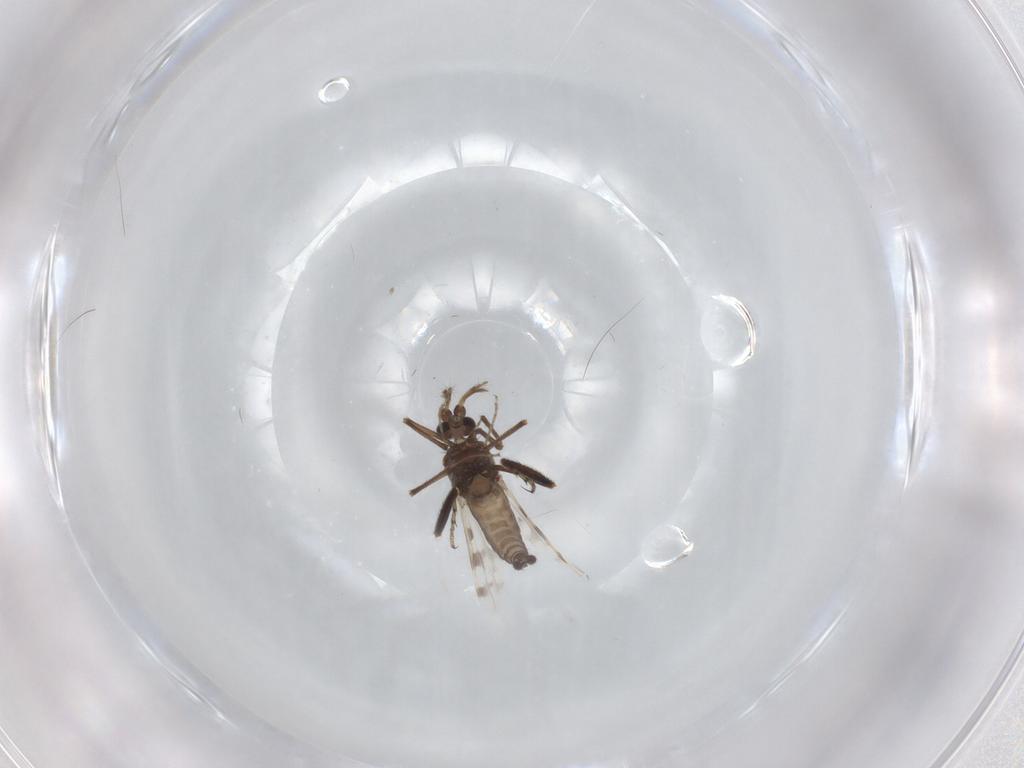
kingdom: Animalia
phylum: Arthropoda
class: Insecta
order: Diptera
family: Ceratopogonidae
